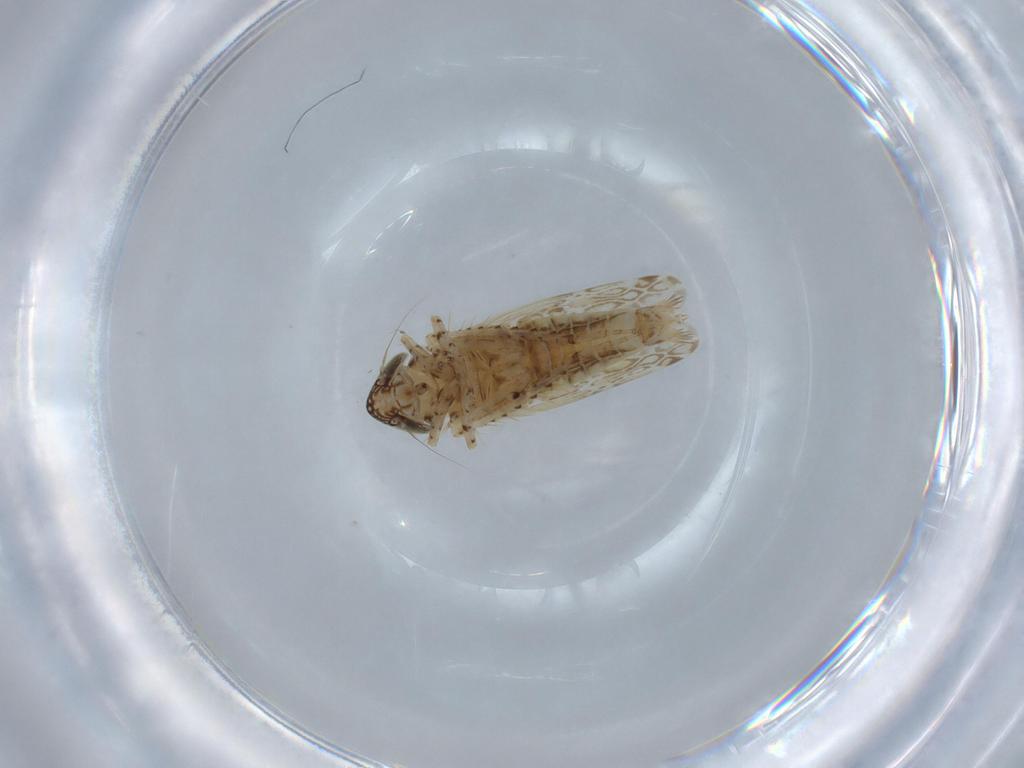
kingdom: Animalia
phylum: Arthropoda
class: Insecta
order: Hemiptera
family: Cicadellidae
